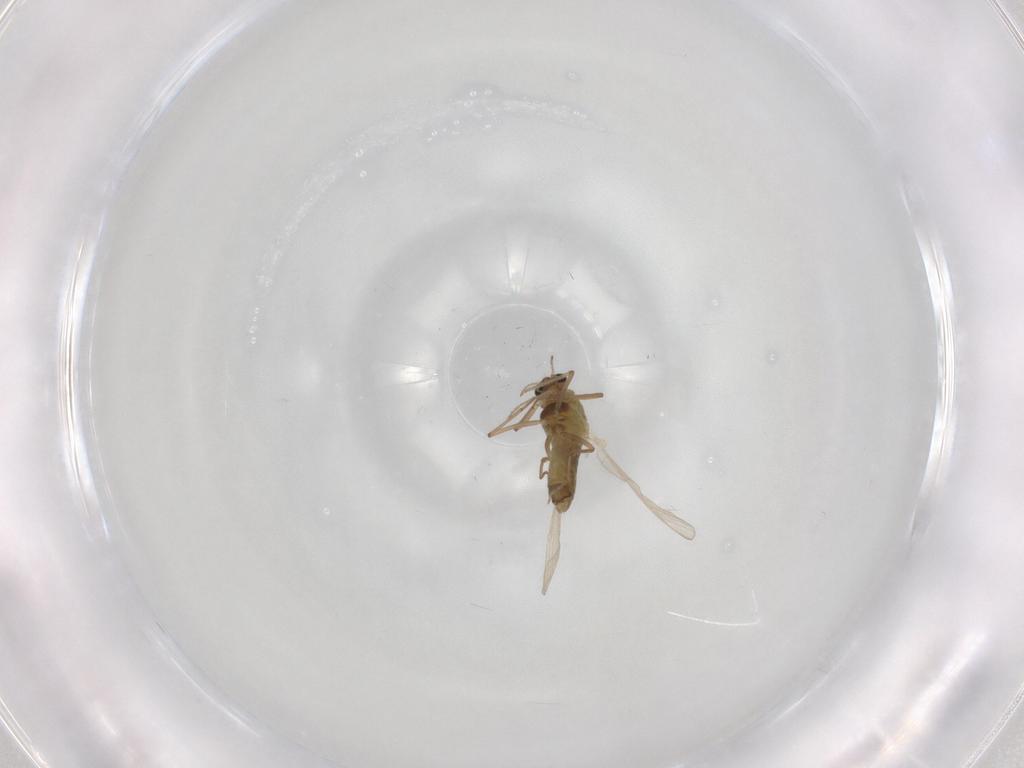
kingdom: Animalia
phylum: Arthropoda
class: Insecta
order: Diptera
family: Chironomidae
